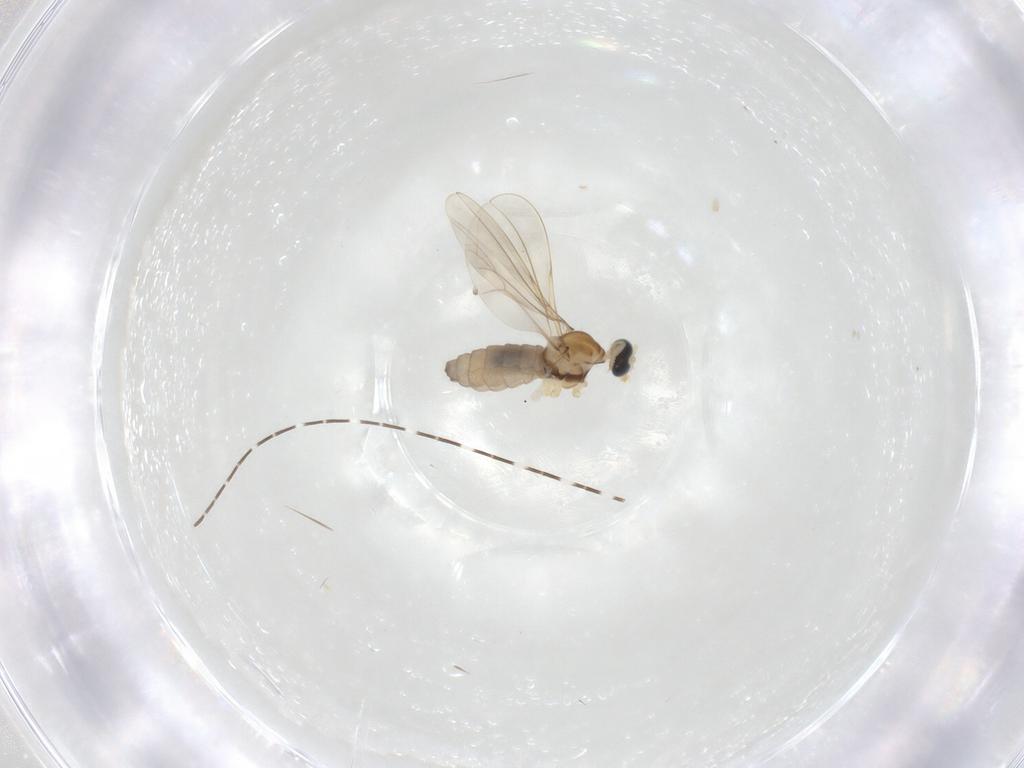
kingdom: Animalia
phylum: Arthropoda
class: Insecta
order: Diptera
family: Cecidomyiidae
